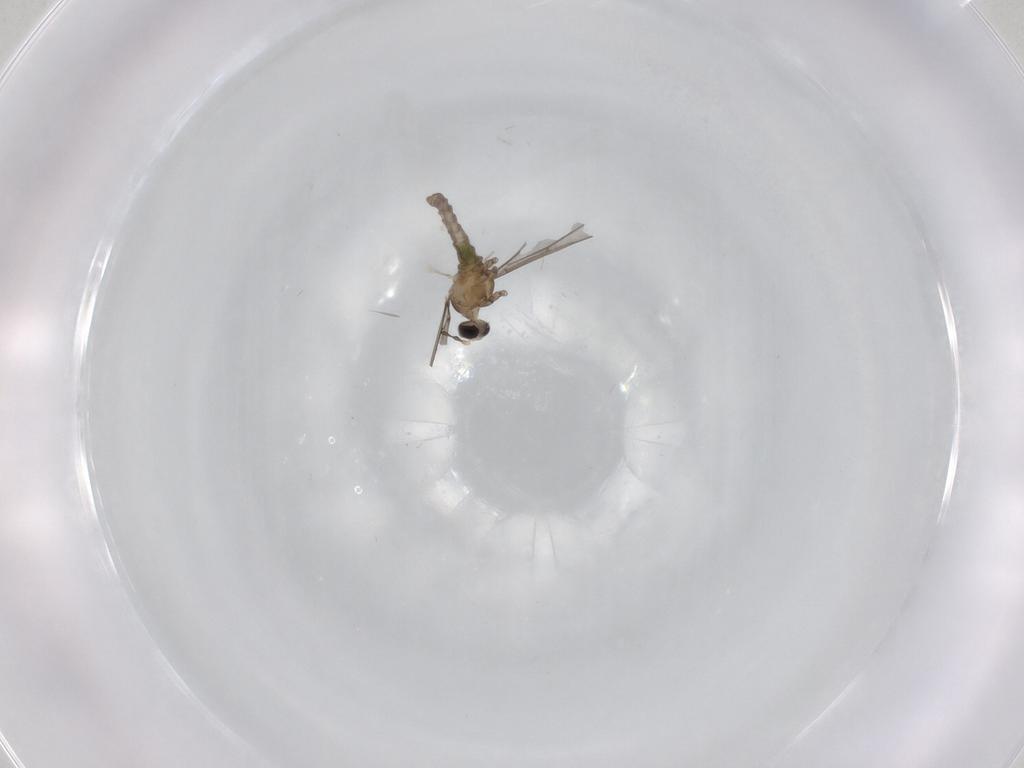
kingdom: Animalia
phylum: Arthropoda
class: Insecta
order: Diptera
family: Cecidomyiidae
